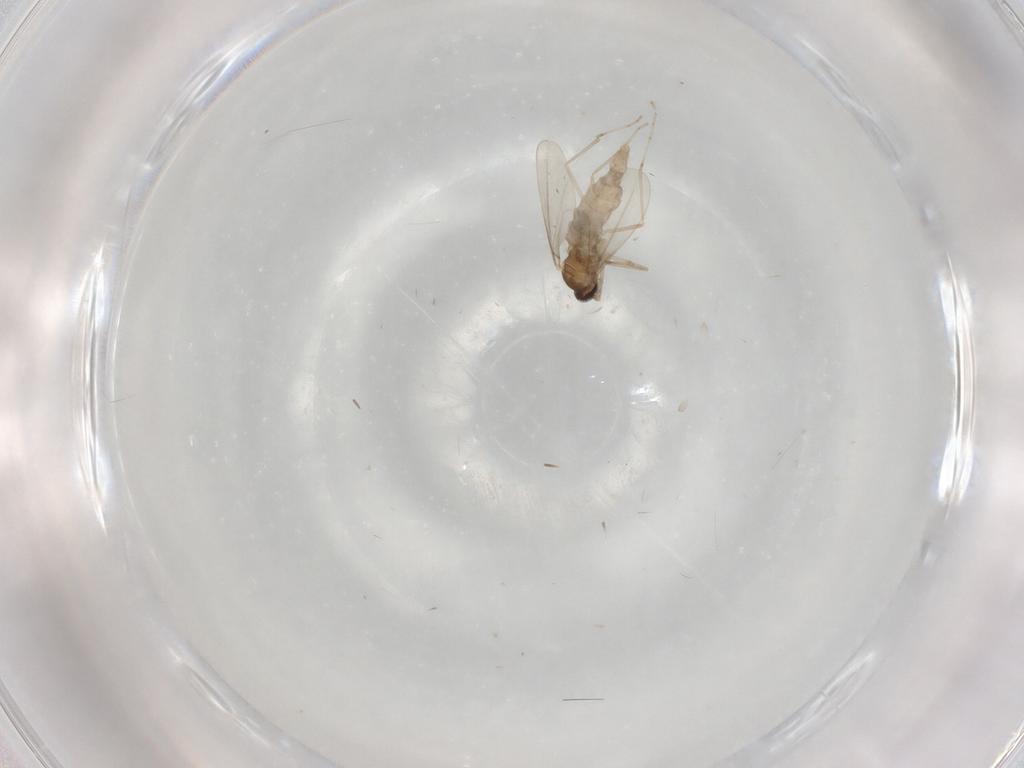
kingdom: Animalia
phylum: Arthropoda
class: Insecta
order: Diptera
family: Cecidomyiidae
